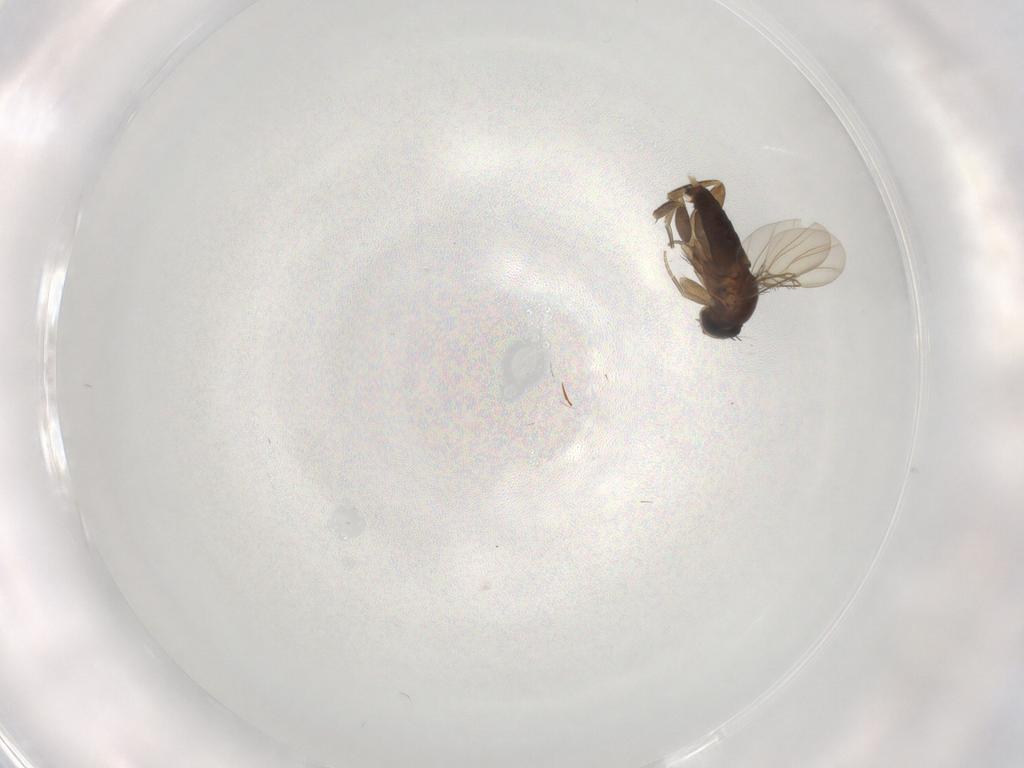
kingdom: Animalia
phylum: Arthropoda
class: Insecta
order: Diptera
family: Phoridae
